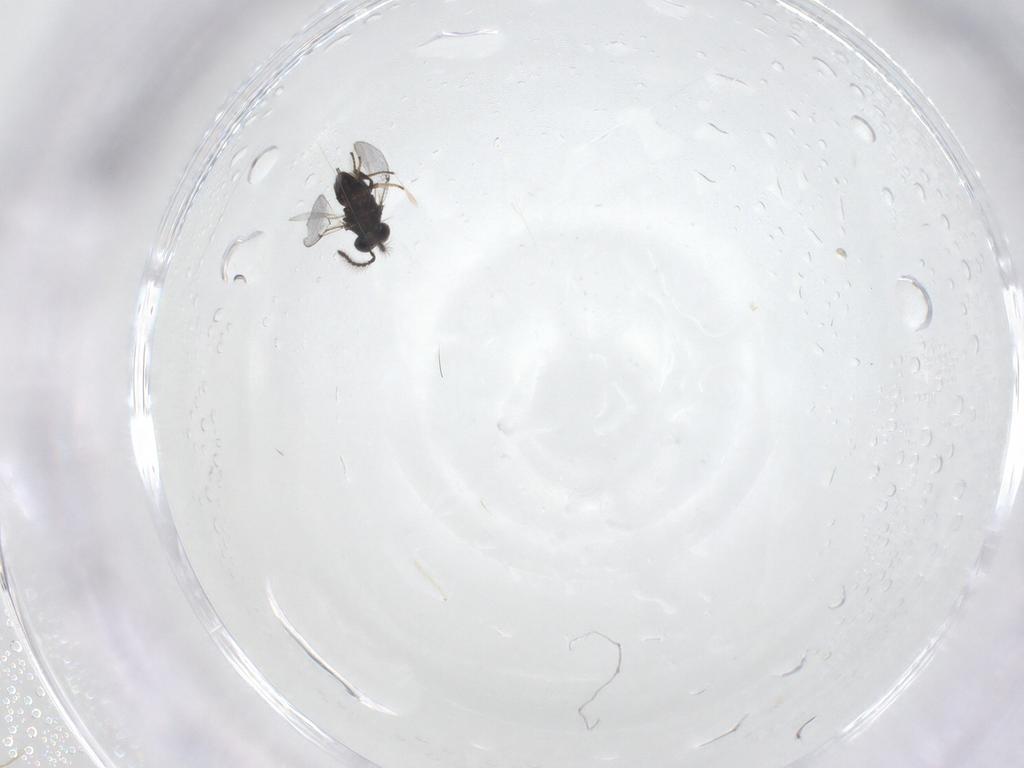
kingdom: Animalia
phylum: Arthropoda
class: Insecta
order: Hymenoptera
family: Encyrtidae
